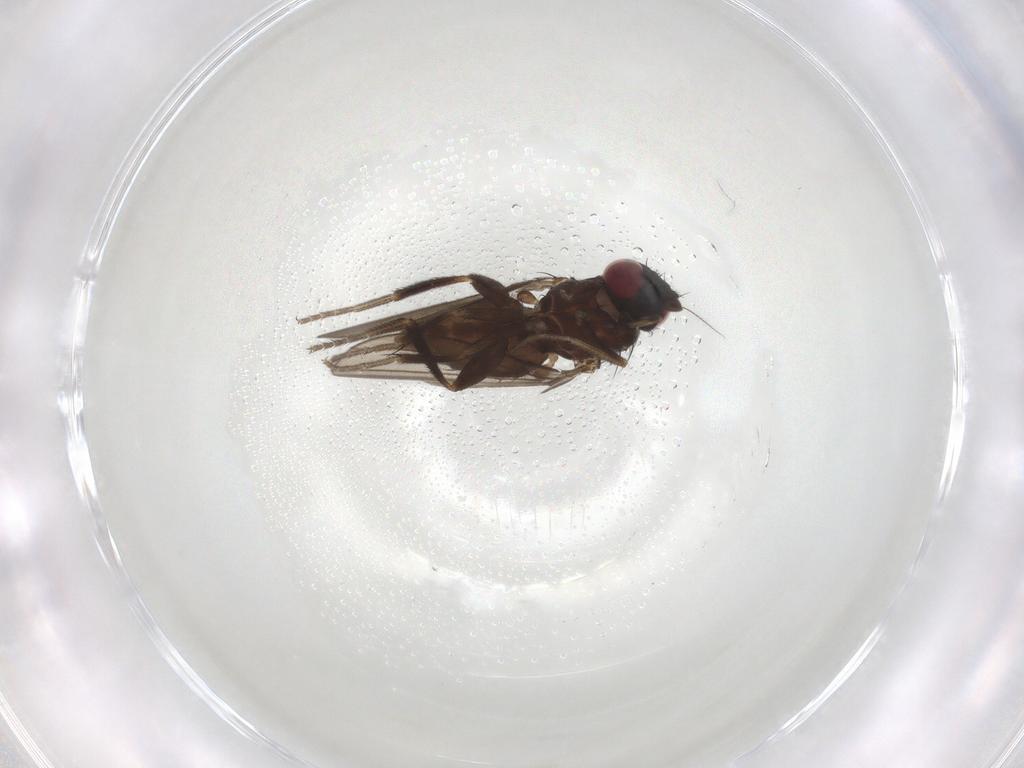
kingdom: Animalia
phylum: Arthropoda
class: Insecta
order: Diptera
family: Milichiidae
